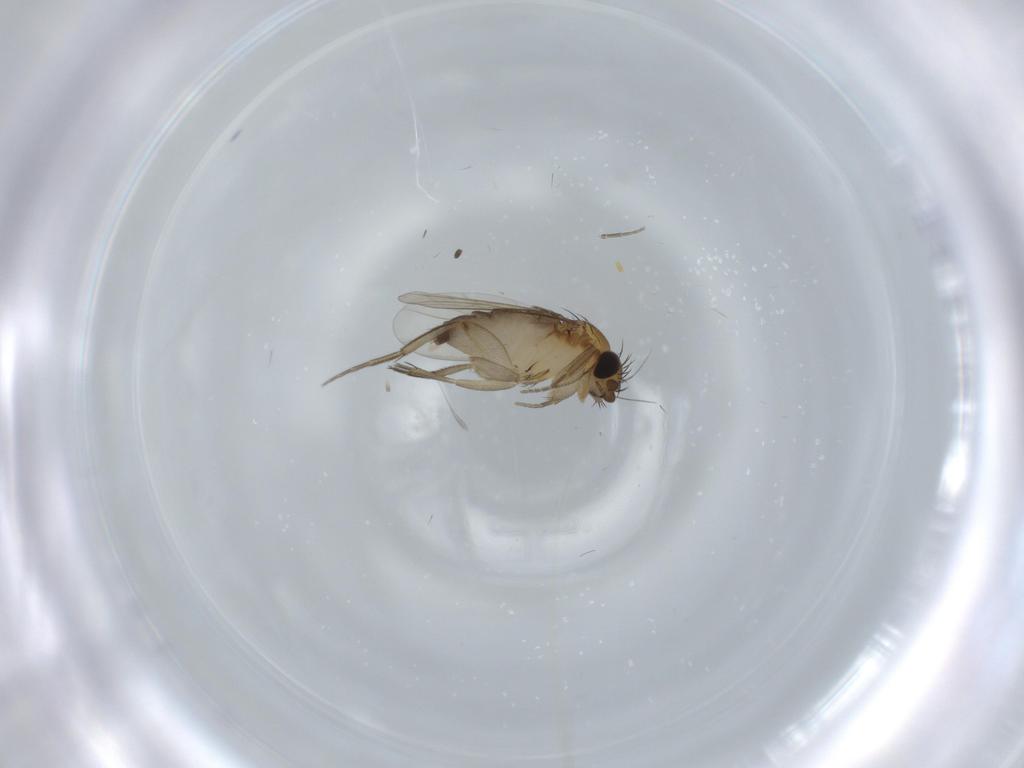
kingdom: Animalia
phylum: Arthropoda
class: Insecta
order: Diptera
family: Phoridae
